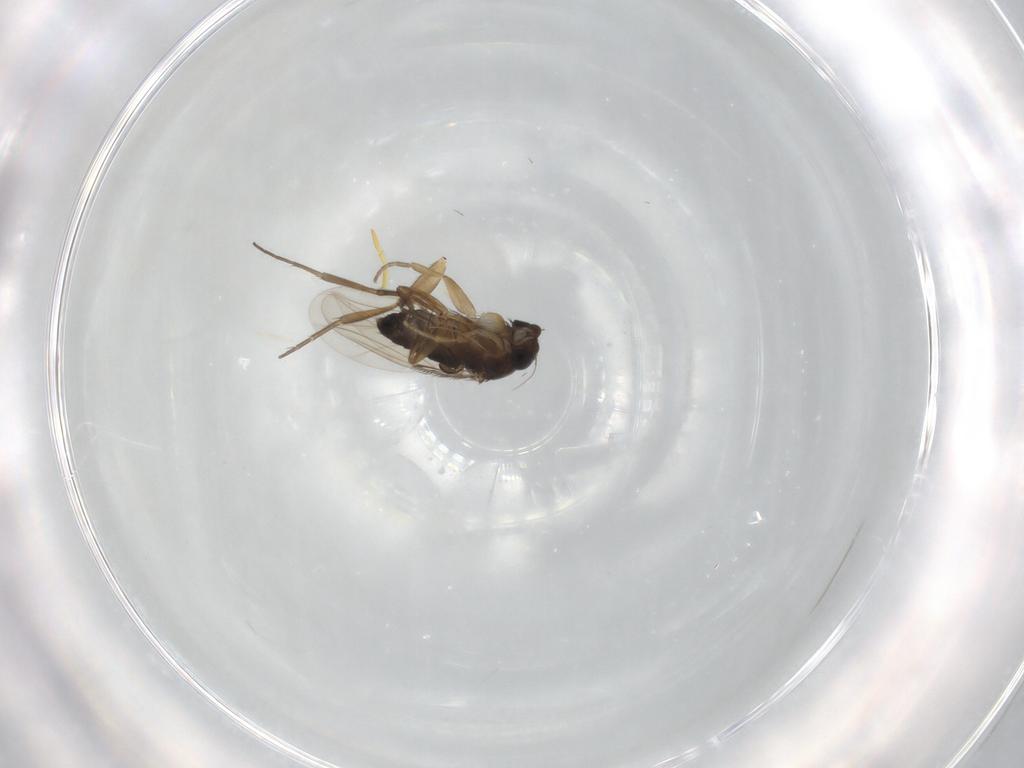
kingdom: Animalia
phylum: Arthropoda
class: Insecta
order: Diptera
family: Phoridae
